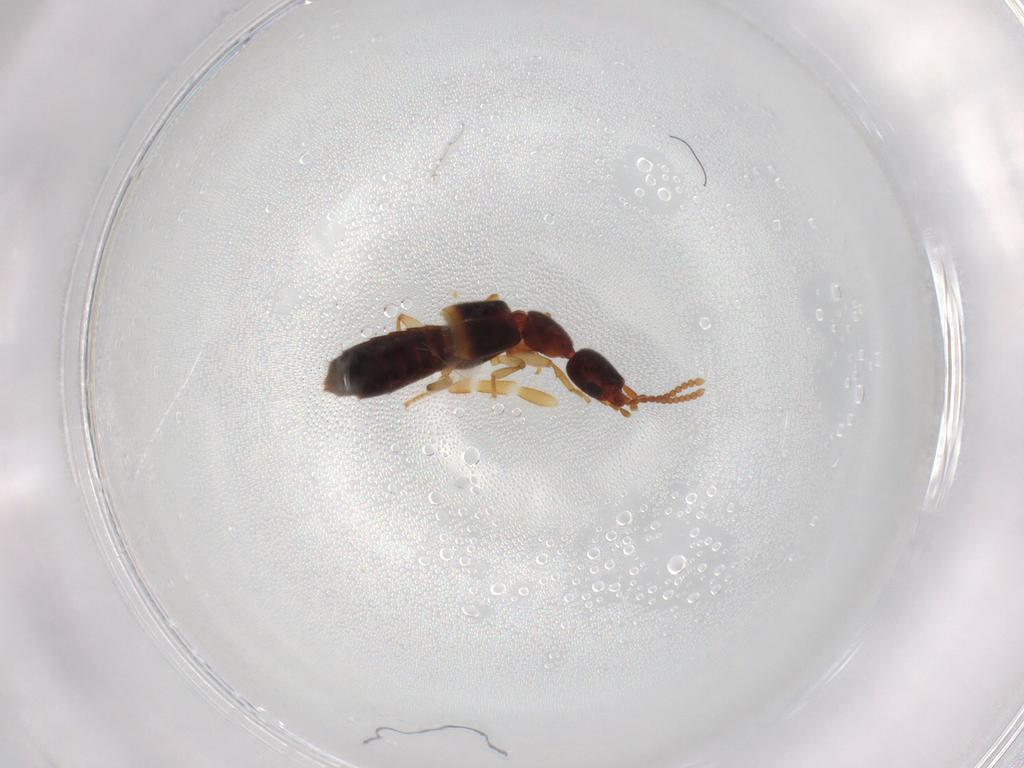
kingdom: Animalia
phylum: Arthropoda
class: Insecta
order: Coleoptera
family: Staphylinidae
